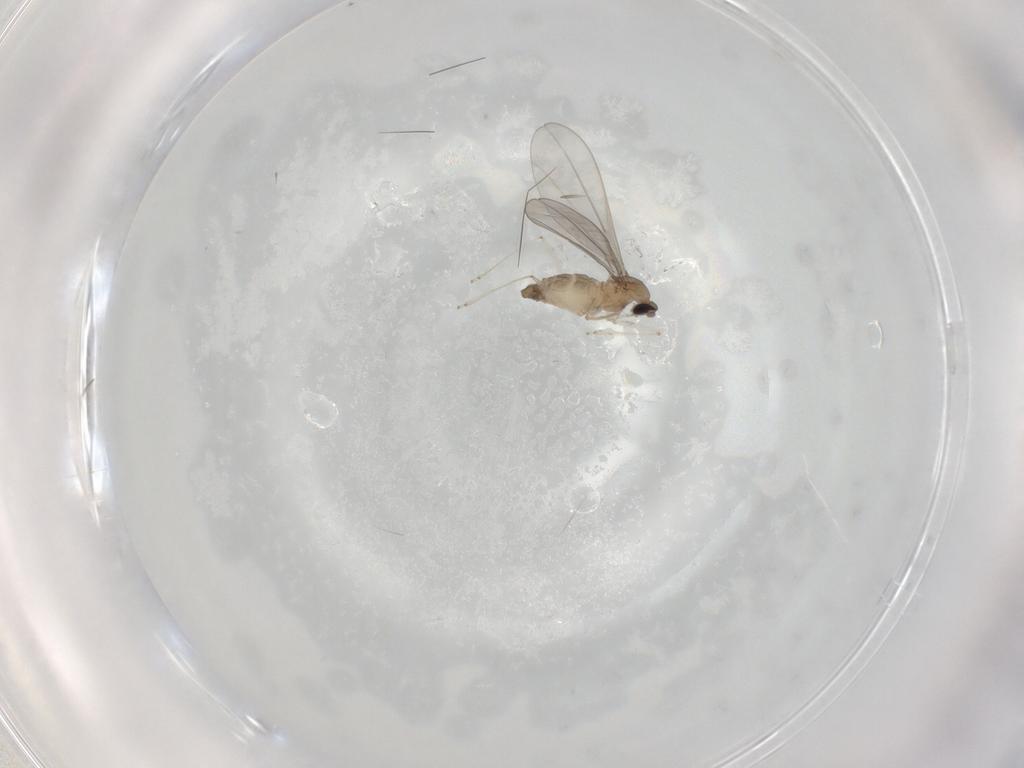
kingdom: Animalia
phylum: Arthropoda
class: Insecta
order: Diptera
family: Cecidomyiidae
